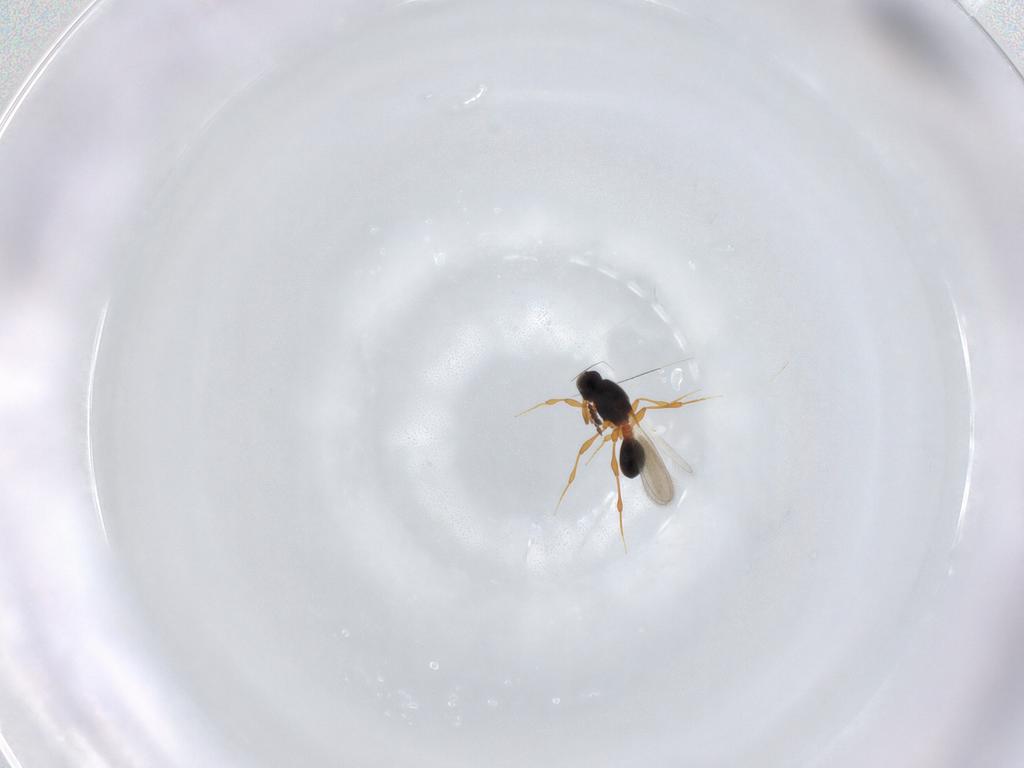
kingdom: Animalia
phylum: Arthropoda
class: Insecta
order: Hymenoptera
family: Platygastridae
